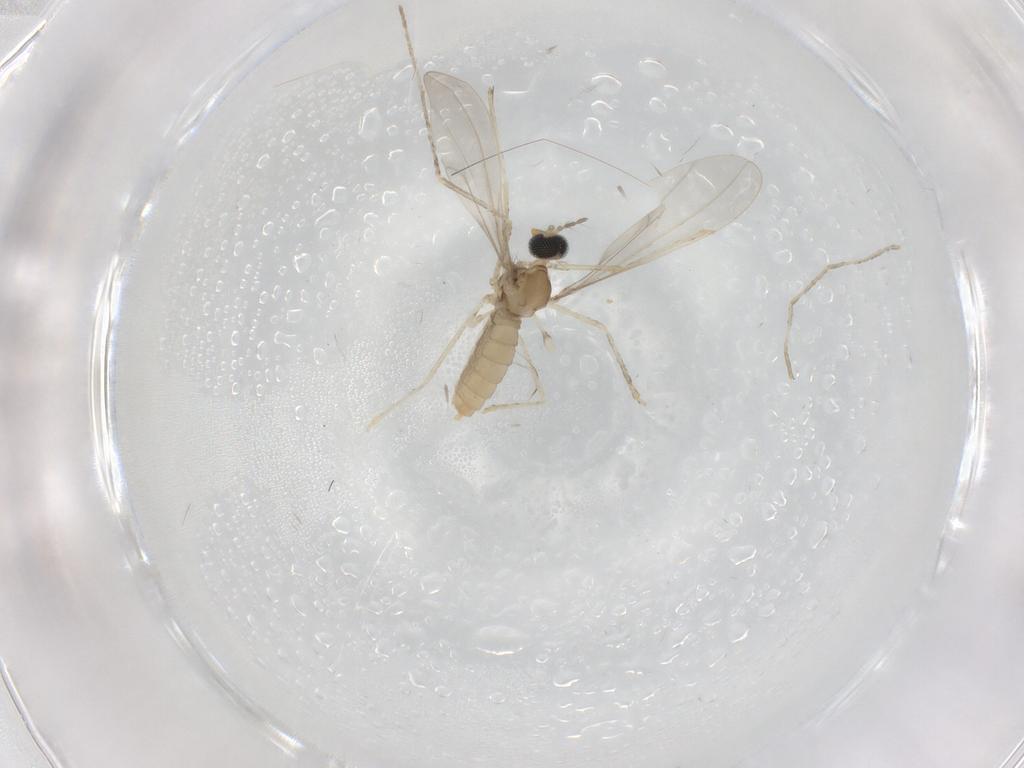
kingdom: Animalia
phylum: Arthropoda
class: Insecta
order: Diptera
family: Cecidomyiidae
